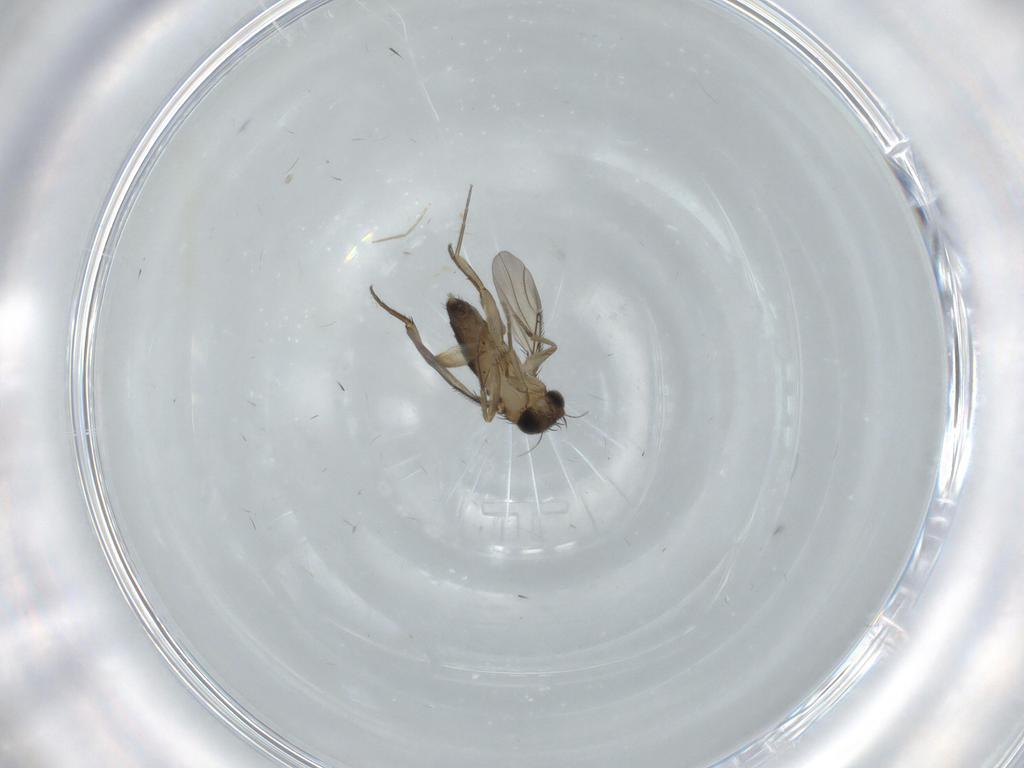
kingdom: Animalia
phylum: Arthropoda
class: Insecta
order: Diptera
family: Phoridae
